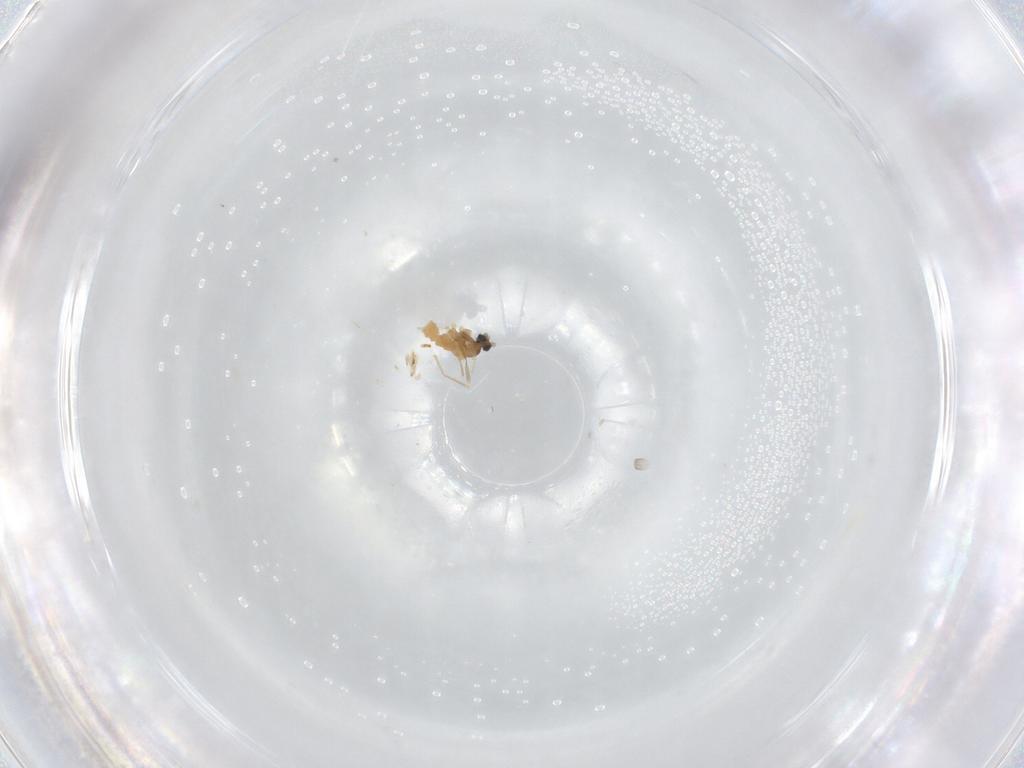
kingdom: Animalia
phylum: Arthropoda
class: Insecta
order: Diptera
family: Cecidomyiidae
